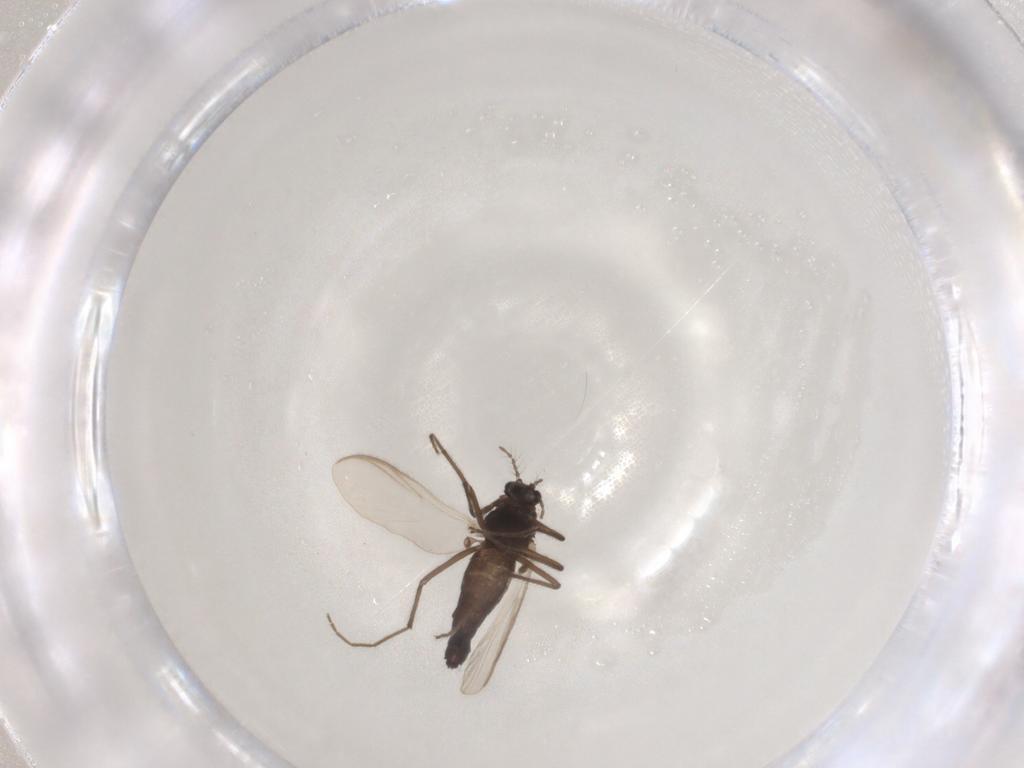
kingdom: Animalia
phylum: Arthropoda
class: Insecta
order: Diptera
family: Chironomidae
